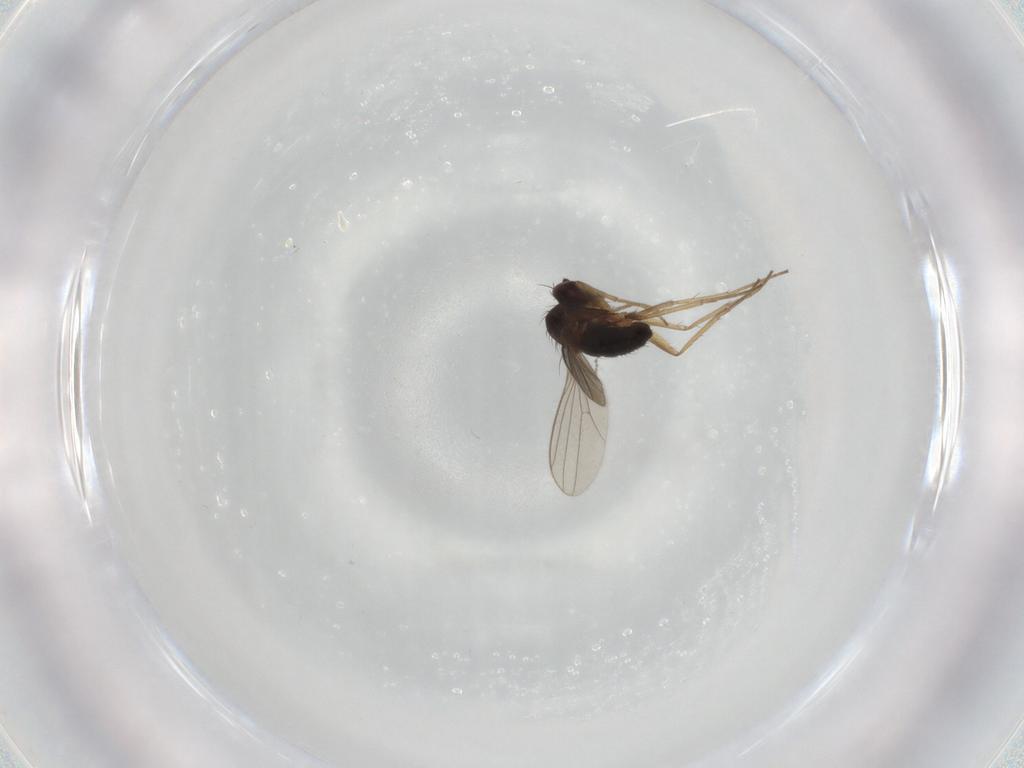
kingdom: Animalia
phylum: Arthropoda
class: Insecta
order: Diptera
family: Dolichopodidae
